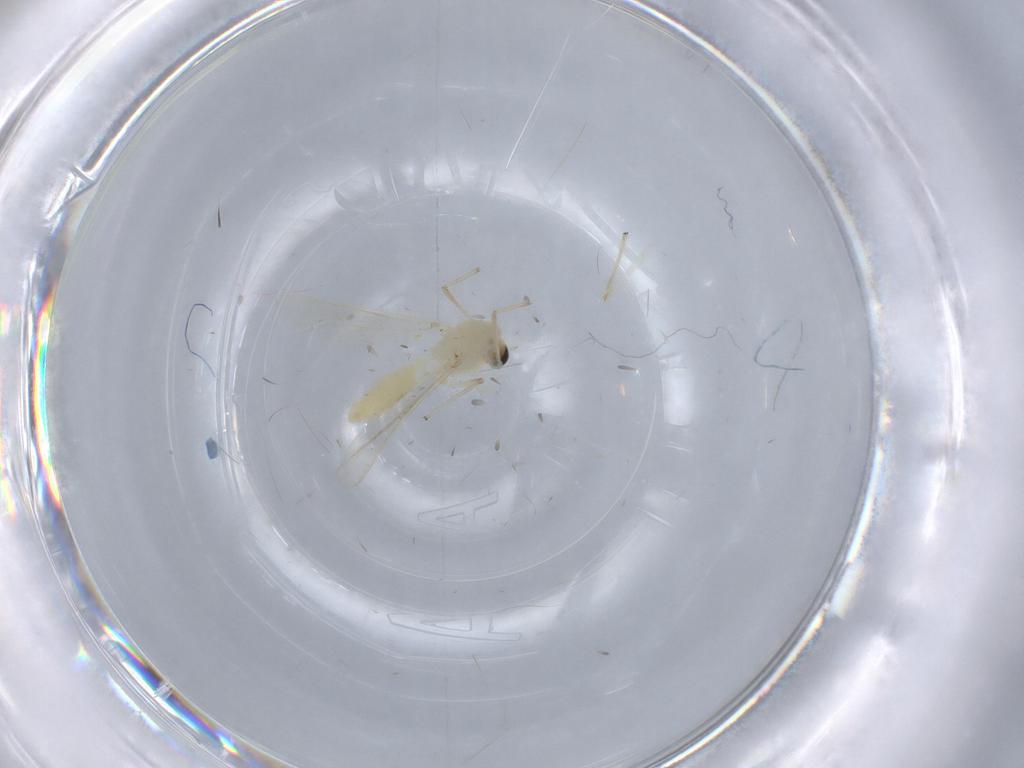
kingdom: Animalia
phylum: Arthropoda
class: Insecta
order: Diptera
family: Chironomidae
